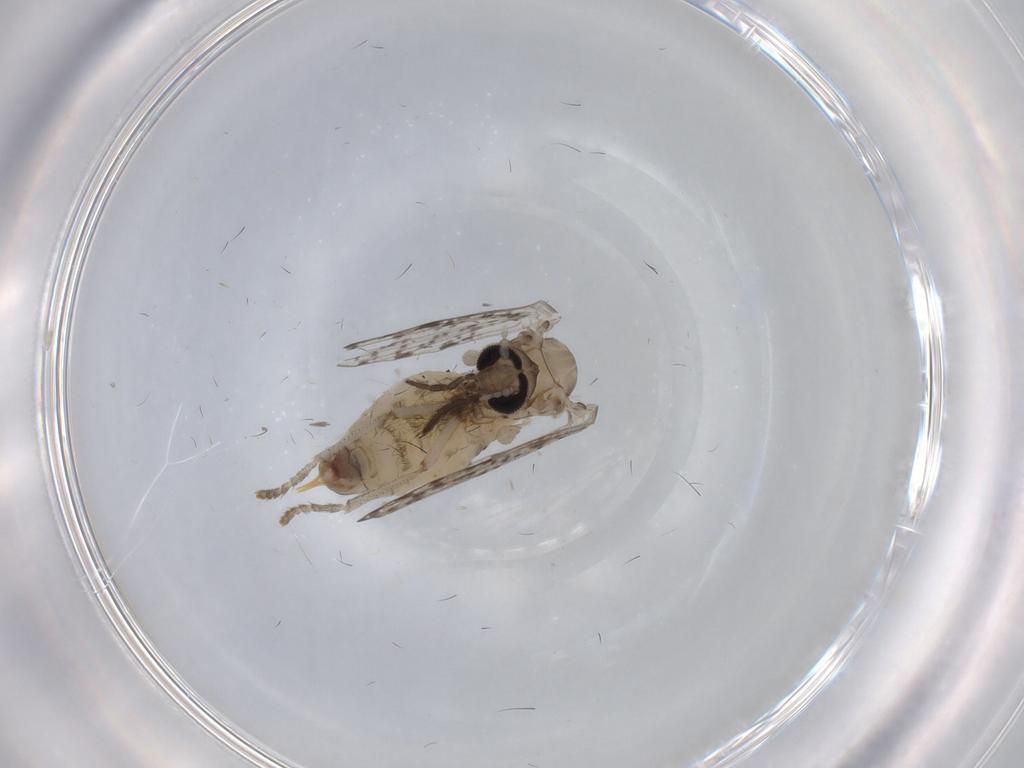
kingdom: Animalia
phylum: Arthropoda
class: Insecta
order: Diptera
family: Psychodidae
